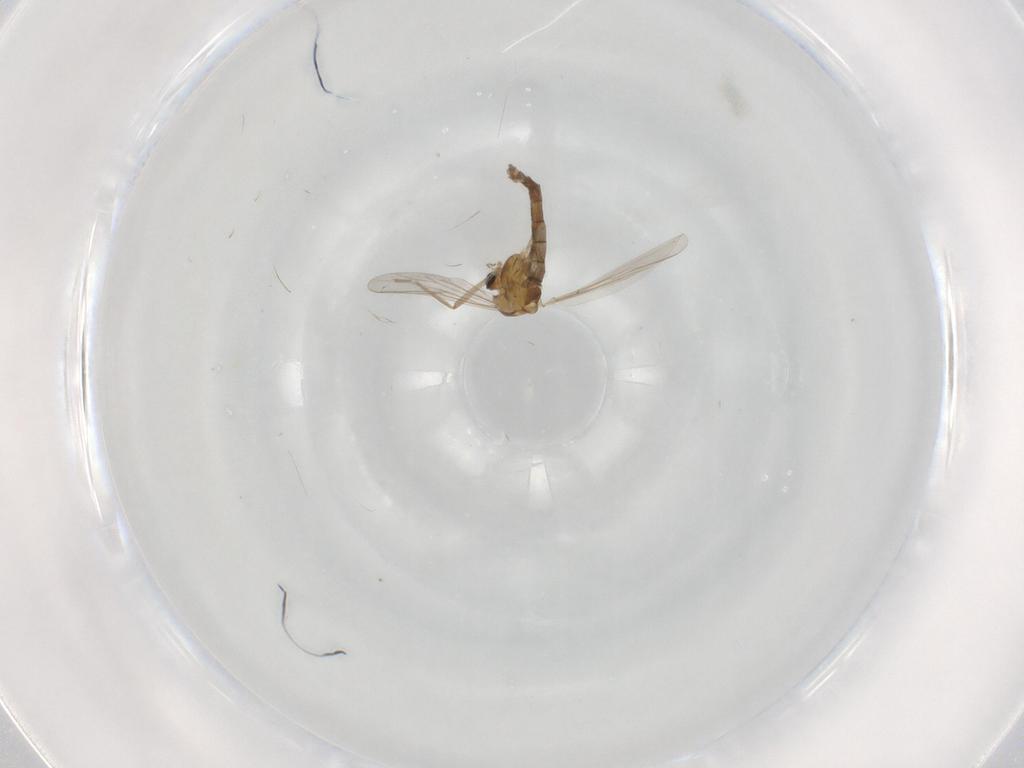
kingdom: Animalia
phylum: Arthropoda
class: Insecta
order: Diptera
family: Chironomidae
